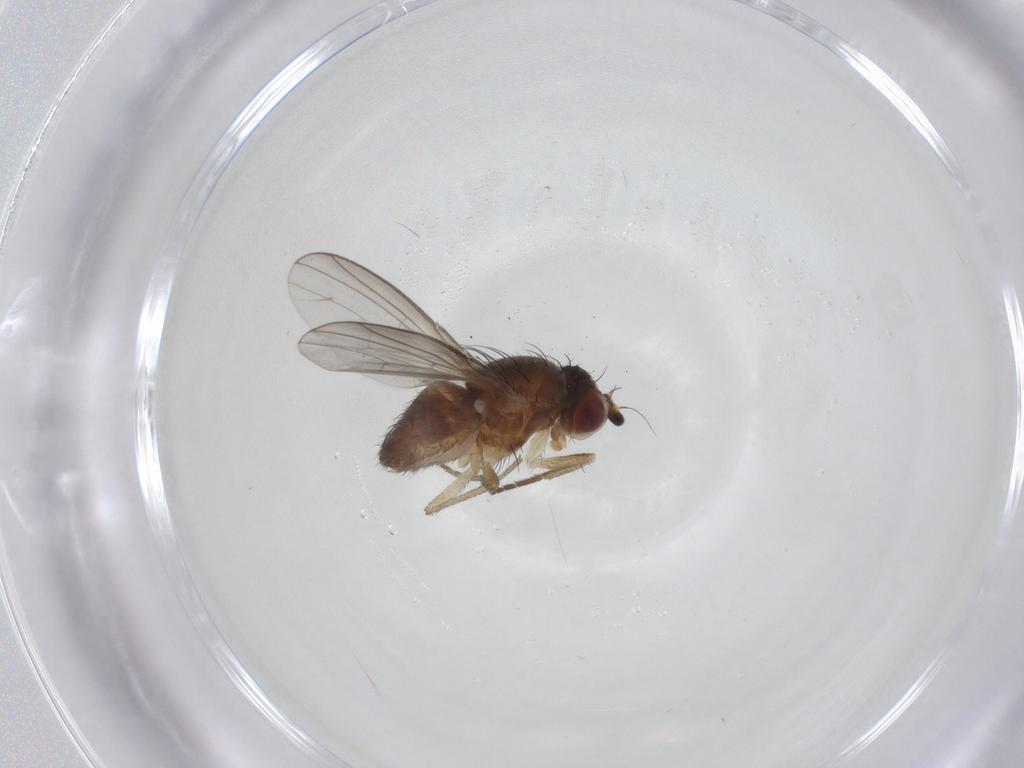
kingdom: Animalia
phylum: Arthropoda
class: Insecta
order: Diptera
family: Heleomyzidae
